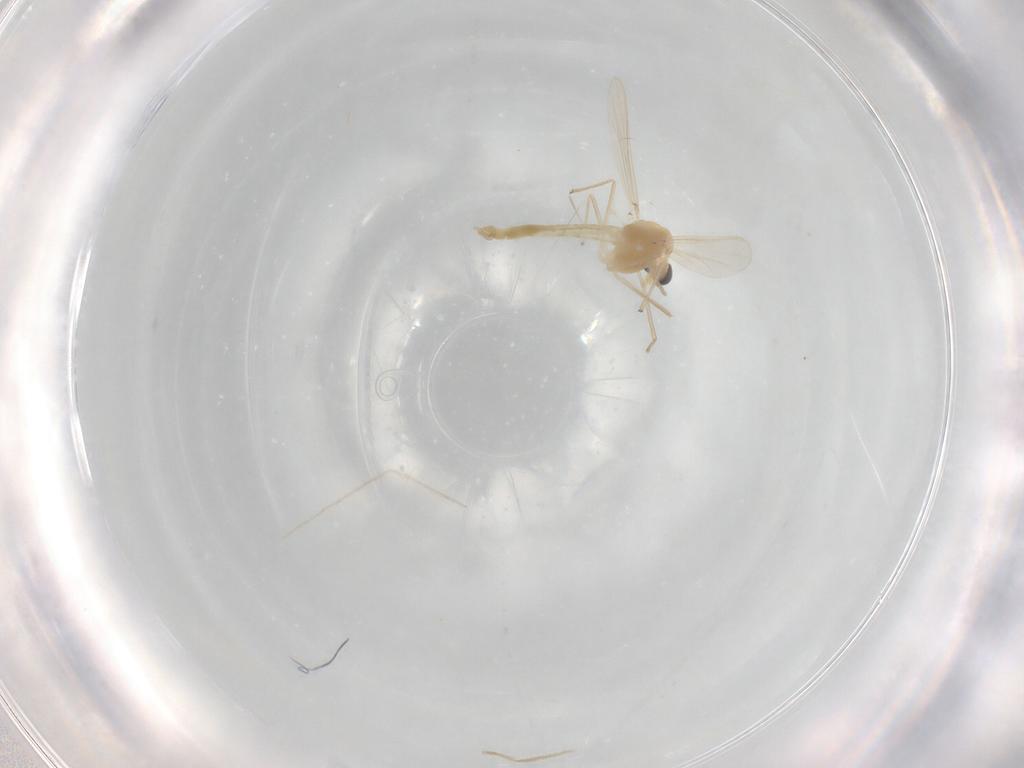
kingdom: Animalia
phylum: Arthropoda
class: Insecta
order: Diptera
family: Chironomidae
